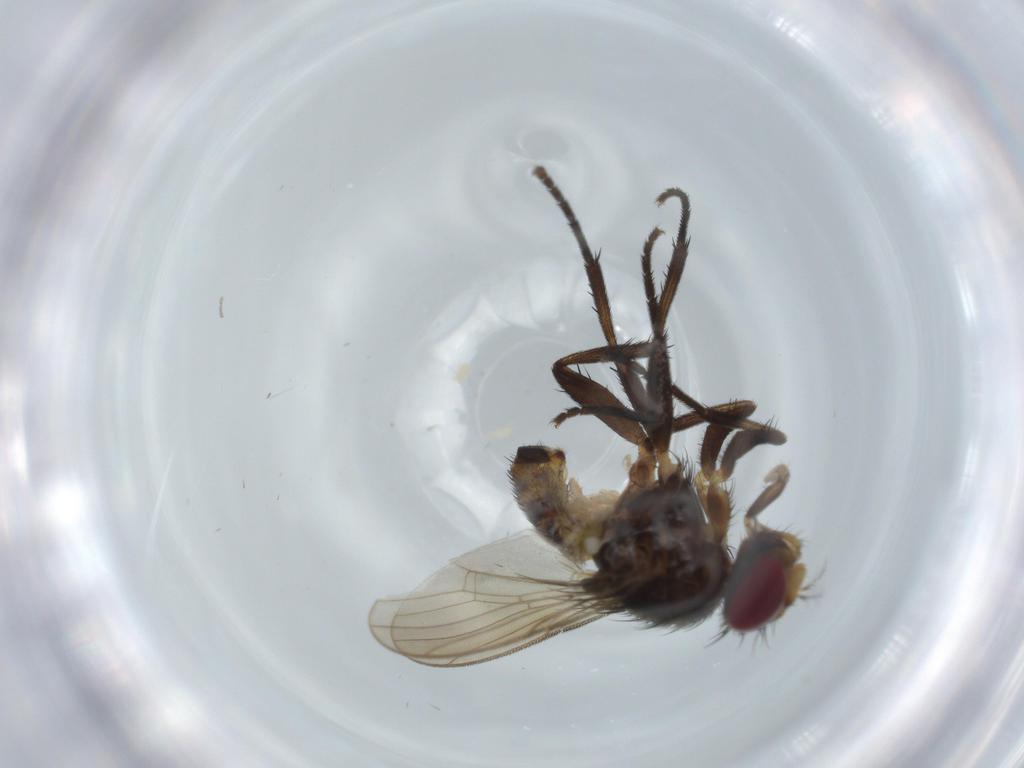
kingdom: Animalia
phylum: Arthropoda
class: Insecta
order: Diptera
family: Anthomyiidae
